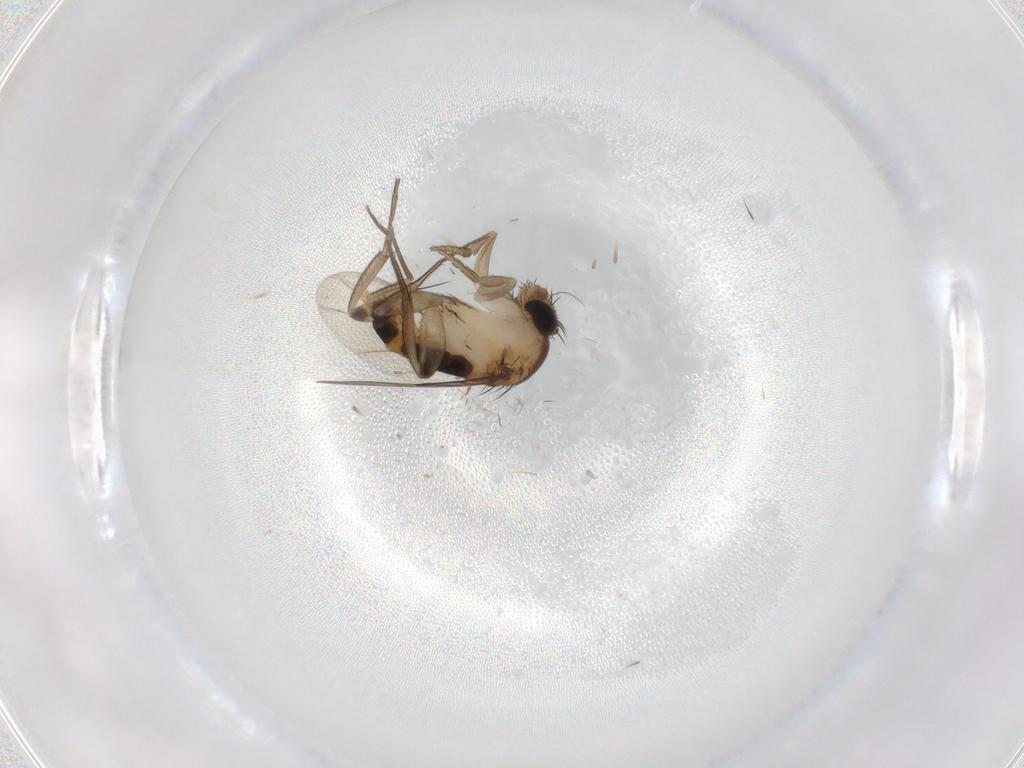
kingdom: Animalia
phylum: Arthropoda
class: Insecta
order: Diptera
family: Phoridae
